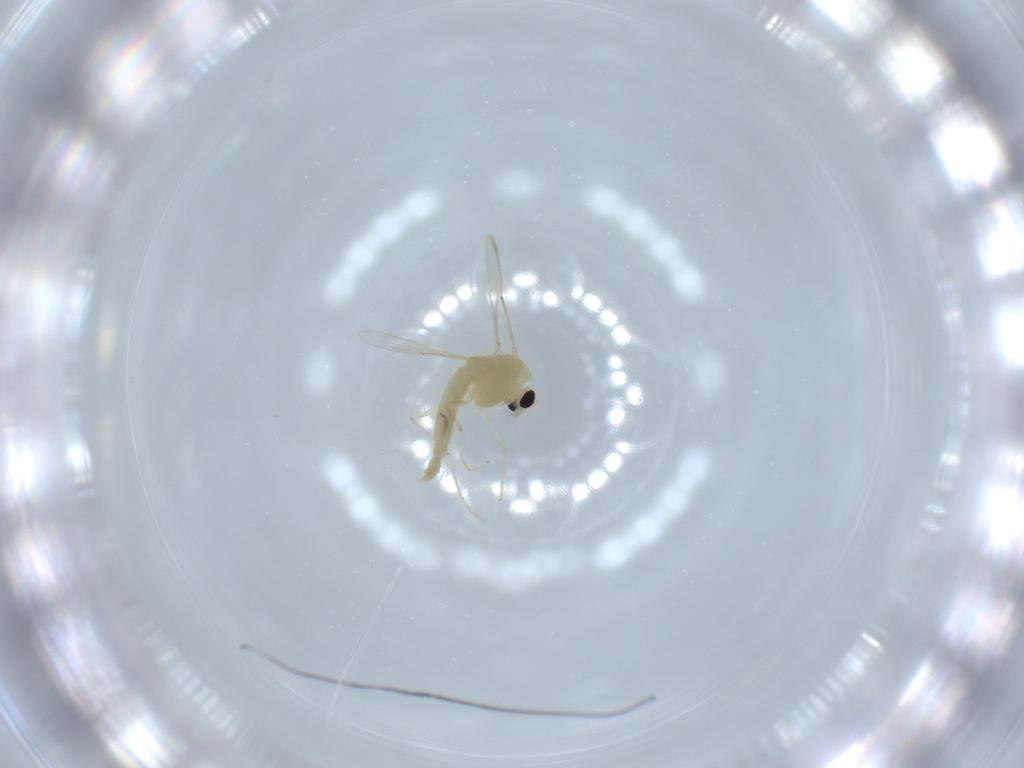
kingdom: Animalia
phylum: Arthropoda
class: Insecta
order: Diptera
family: Chironomidae
